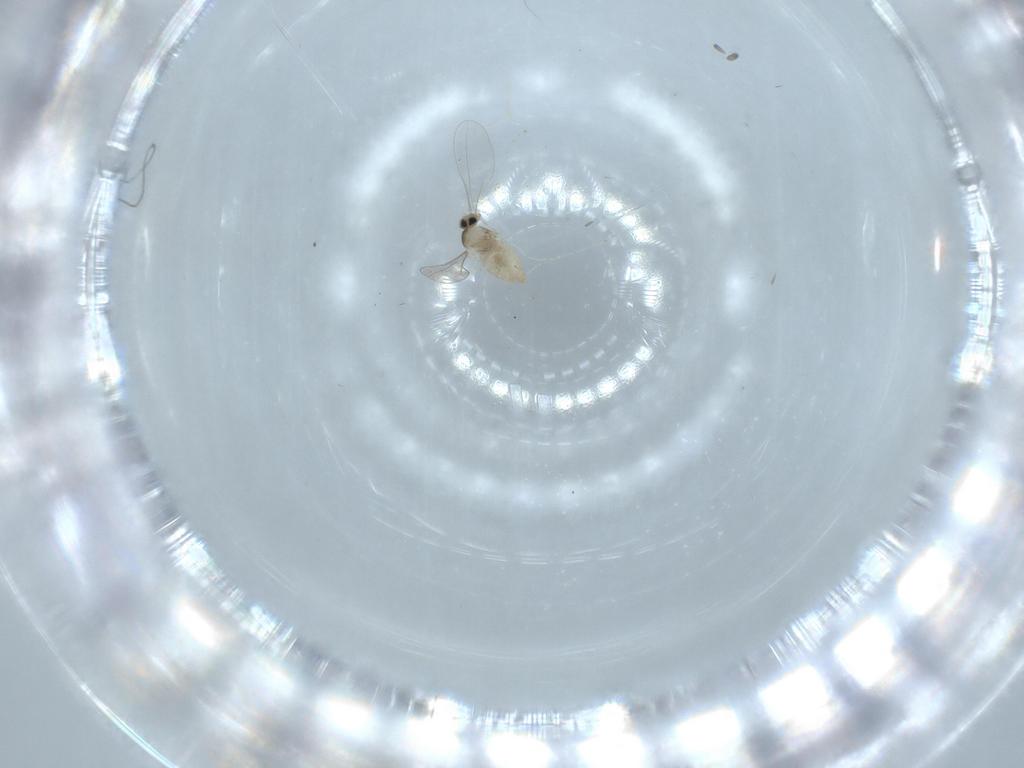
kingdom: Animalia
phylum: Arthropoda
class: Insecta
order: Diptera
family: Cecidomyiidae
